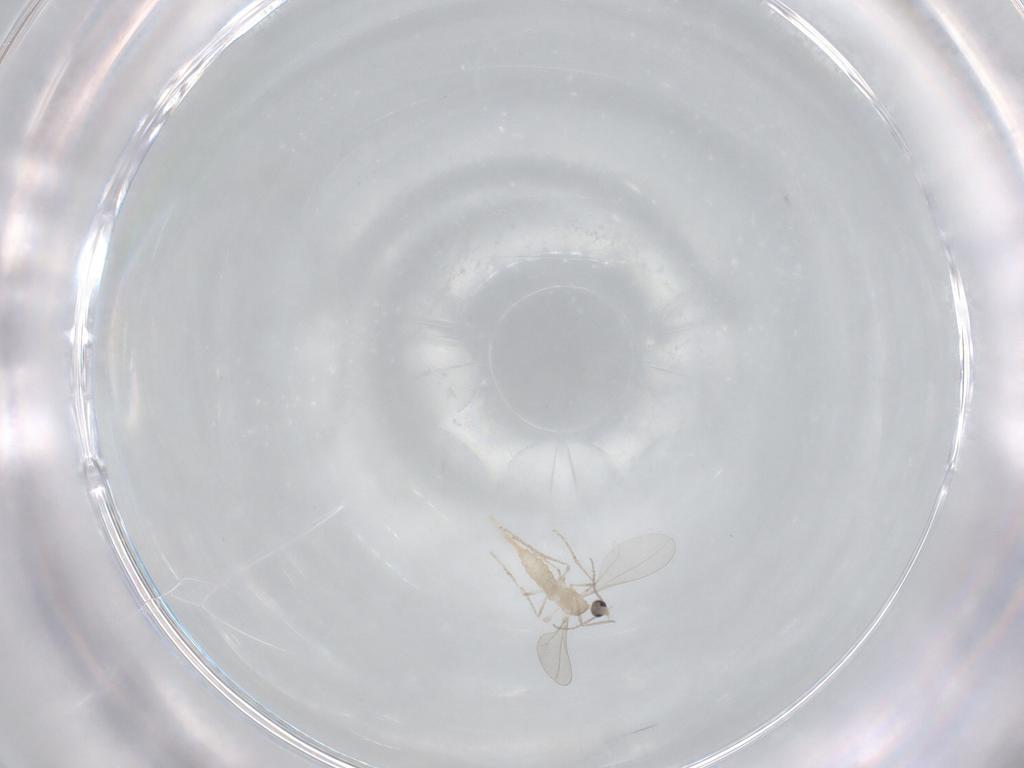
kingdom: Animalia
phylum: Arthropoda
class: Insecta
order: Diptera
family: Cecidomyiidae
